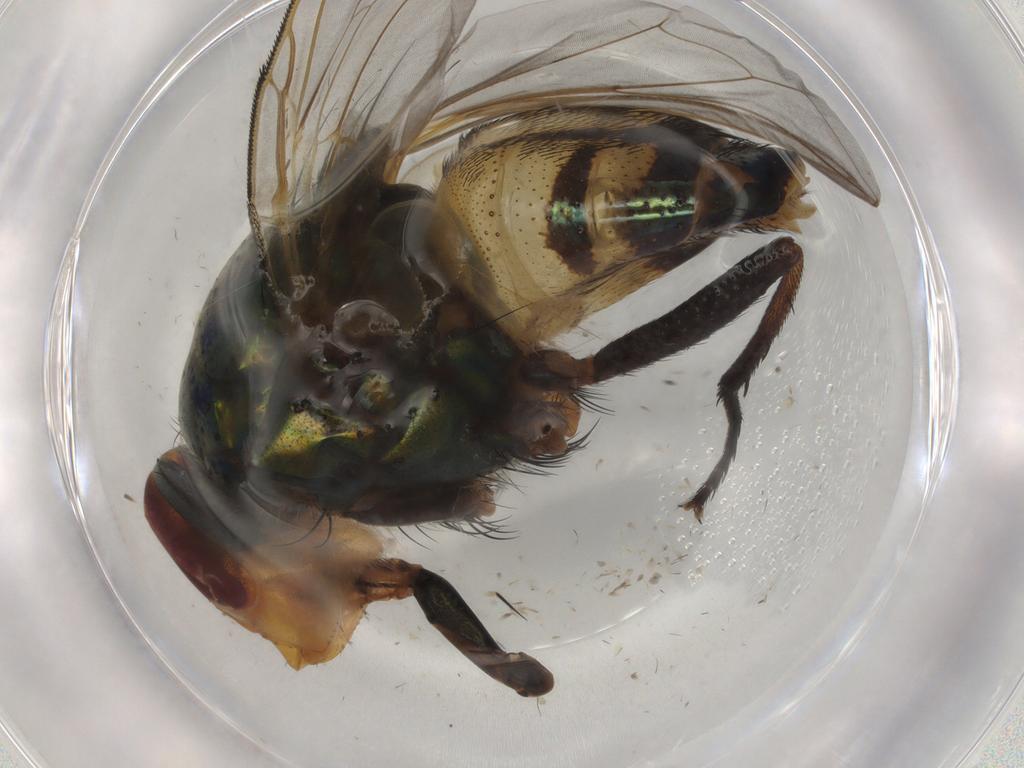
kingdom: Animalia
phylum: Arthropoda
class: Insecta
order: Diptera
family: Calliphoridae
